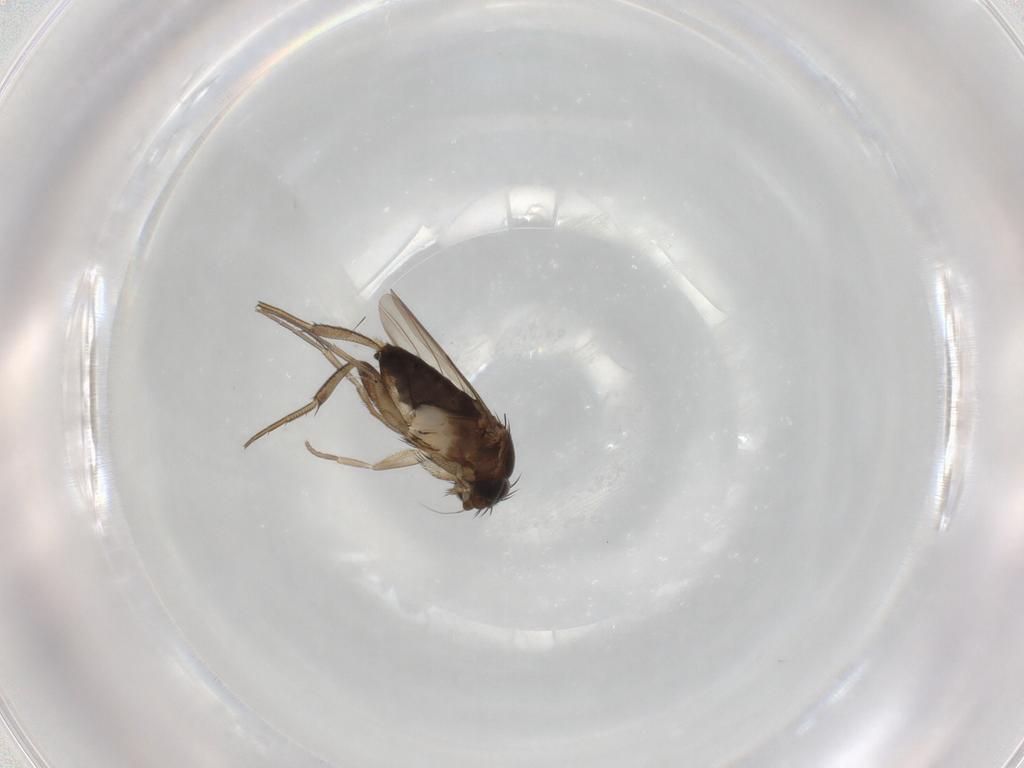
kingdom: Animalia
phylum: Arthropoda
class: Insecta
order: Diptera
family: Phoridae
